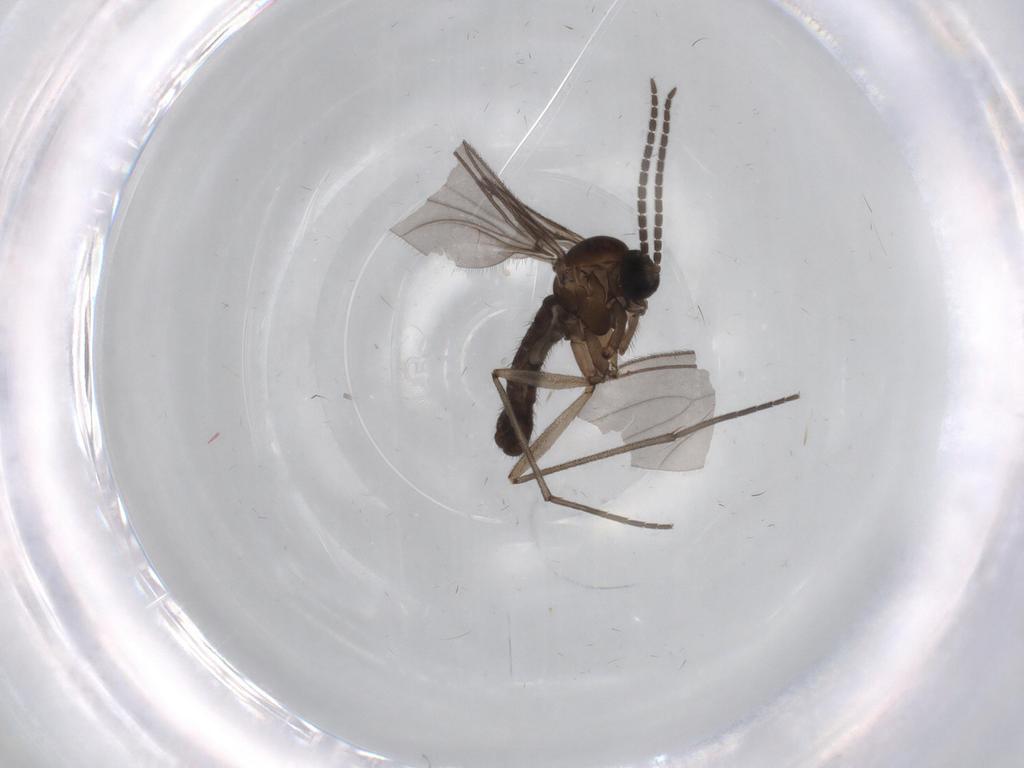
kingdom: Animalia
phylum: Arthropoda
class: Insecta
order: Diptera
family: Sciaridae
